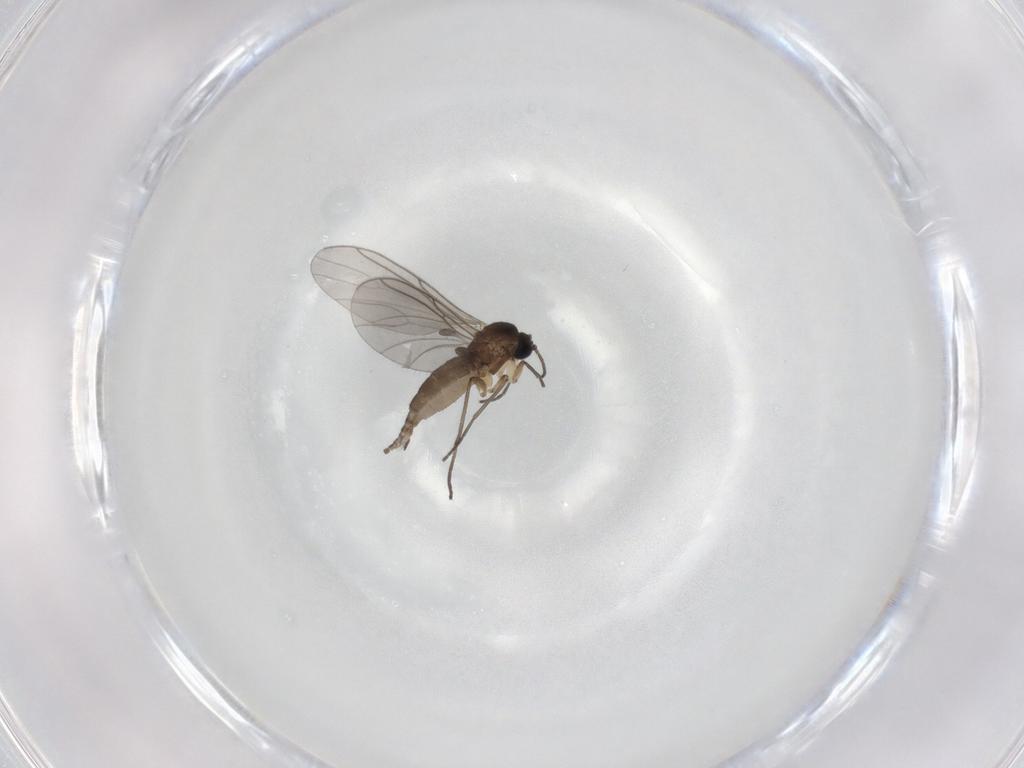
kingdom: Animalia
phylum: Arthropoda
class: Insecta
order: Diptera
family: Sciaridae
